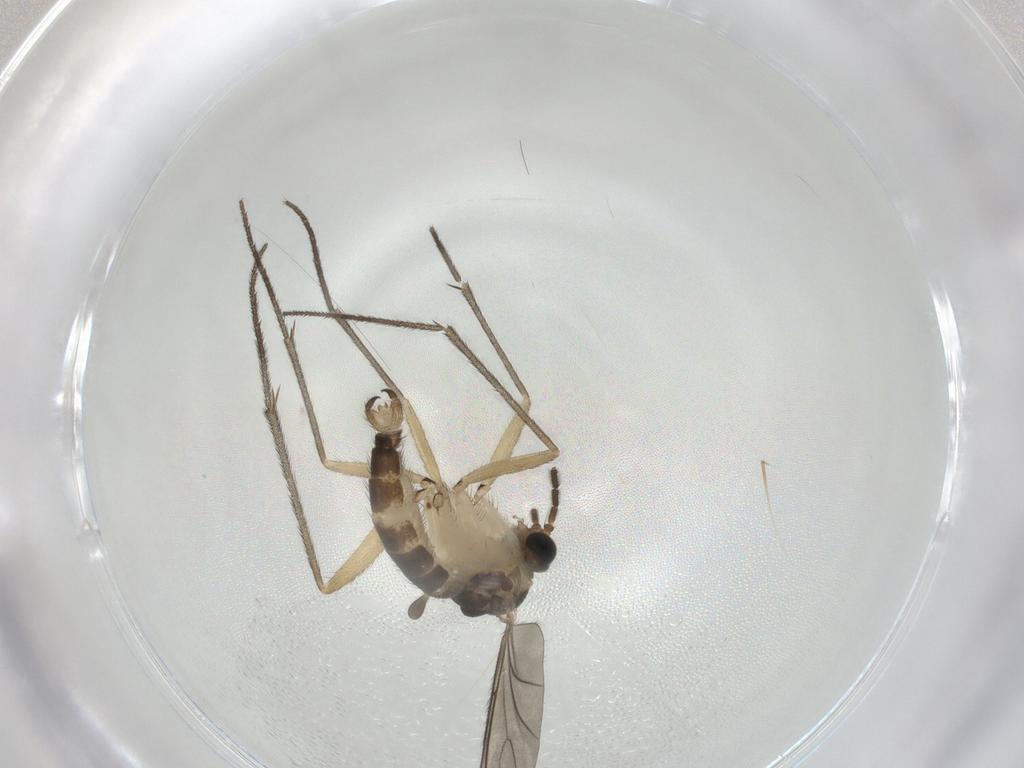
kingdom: Animalia
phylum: Arthropoda
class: Insecta
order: Diptera
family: Sciaridae
